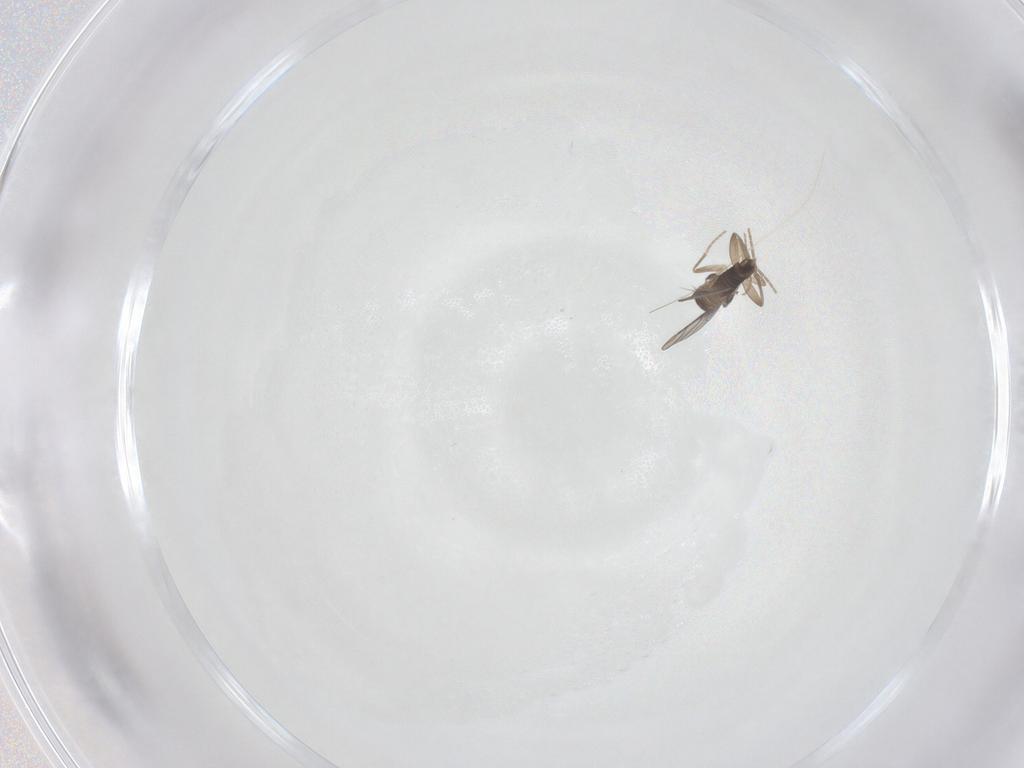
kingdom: Animalia
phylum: Arthropoda
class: Insecta
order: Diptera
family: Phoridae
